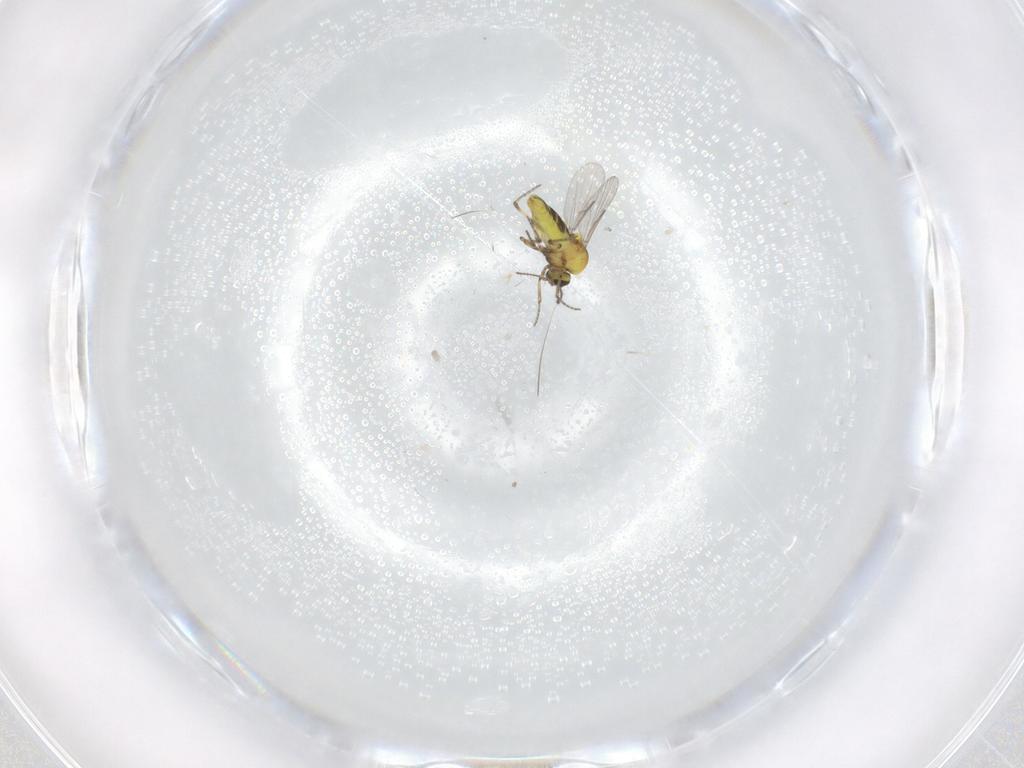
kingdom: Animalia
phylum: Arthropoda
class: Insecta
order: Diptera
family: Ceratopogonidae
